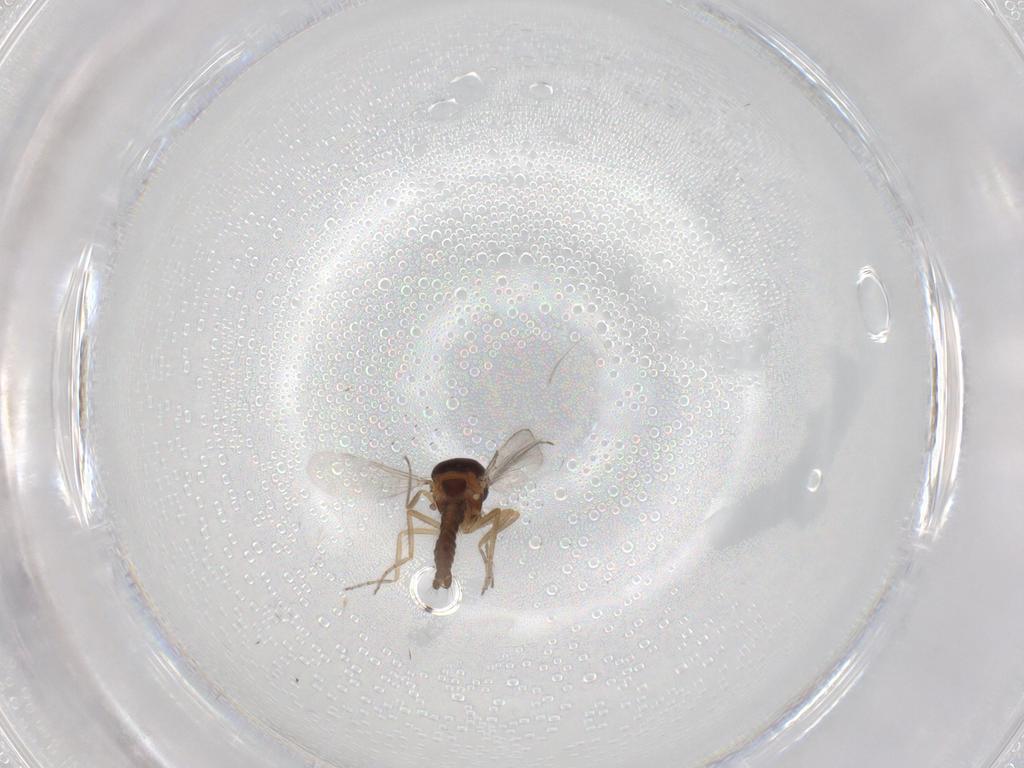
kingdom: Animalia
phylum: Arthropoda
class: Insecta
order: Diptera
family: Ceratopogonidae
